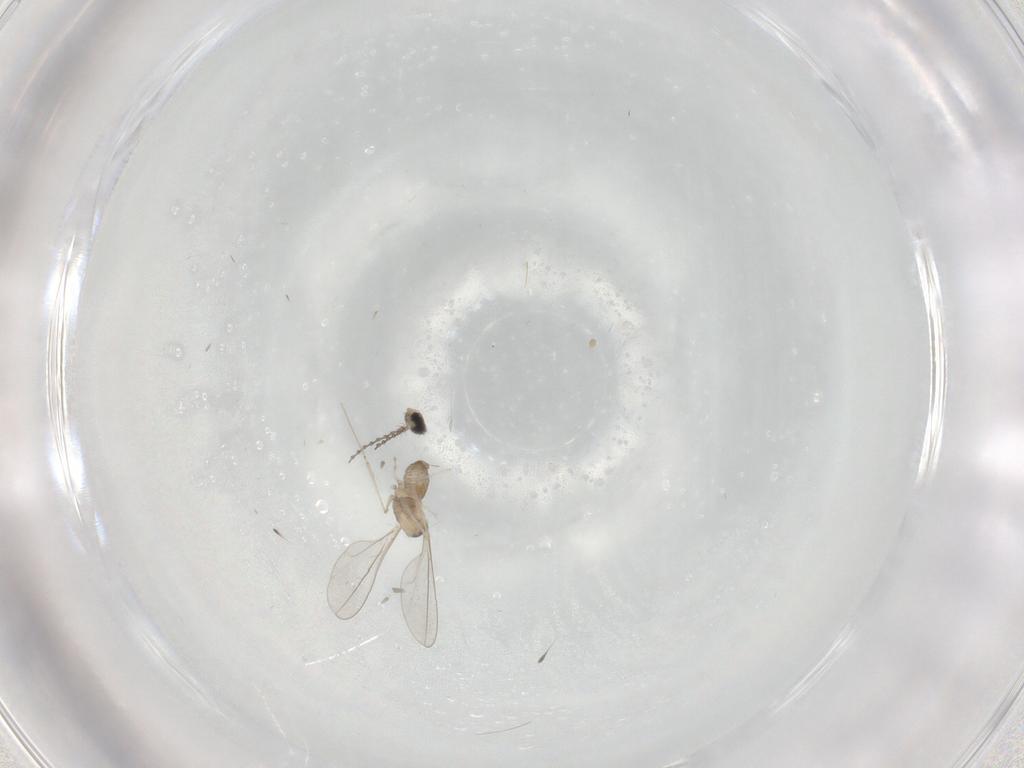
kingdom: Animalia
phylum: Arthropoda
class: Insecta
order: Diptera
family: Cecidomyiidae
